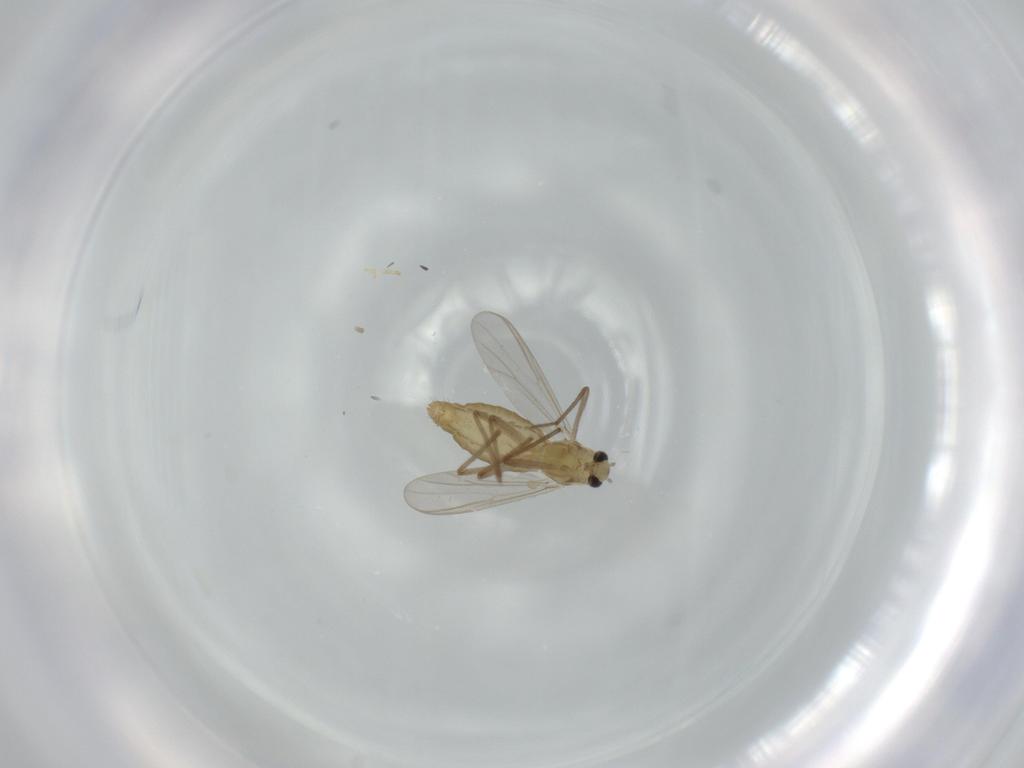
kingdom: Animalia
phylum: Arthropoda
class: Insecta
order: Diptera
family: Chironomidae
